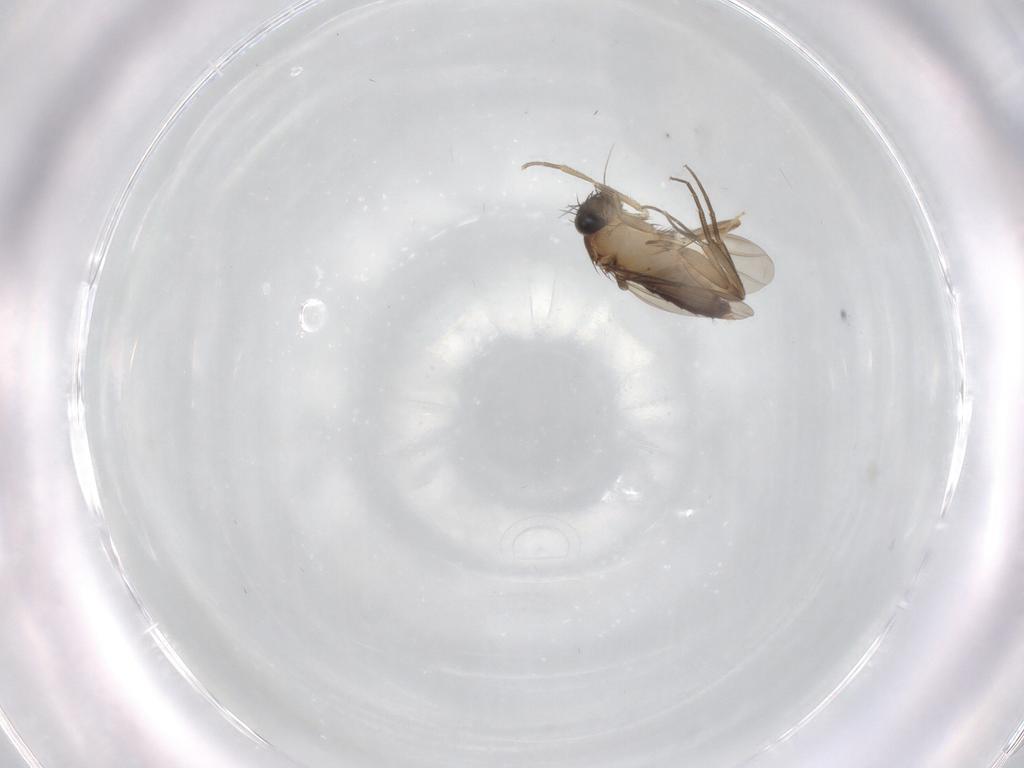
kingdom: Animalia
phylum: Arthropoda
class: Insecta
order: Diptera
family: Phoridae
